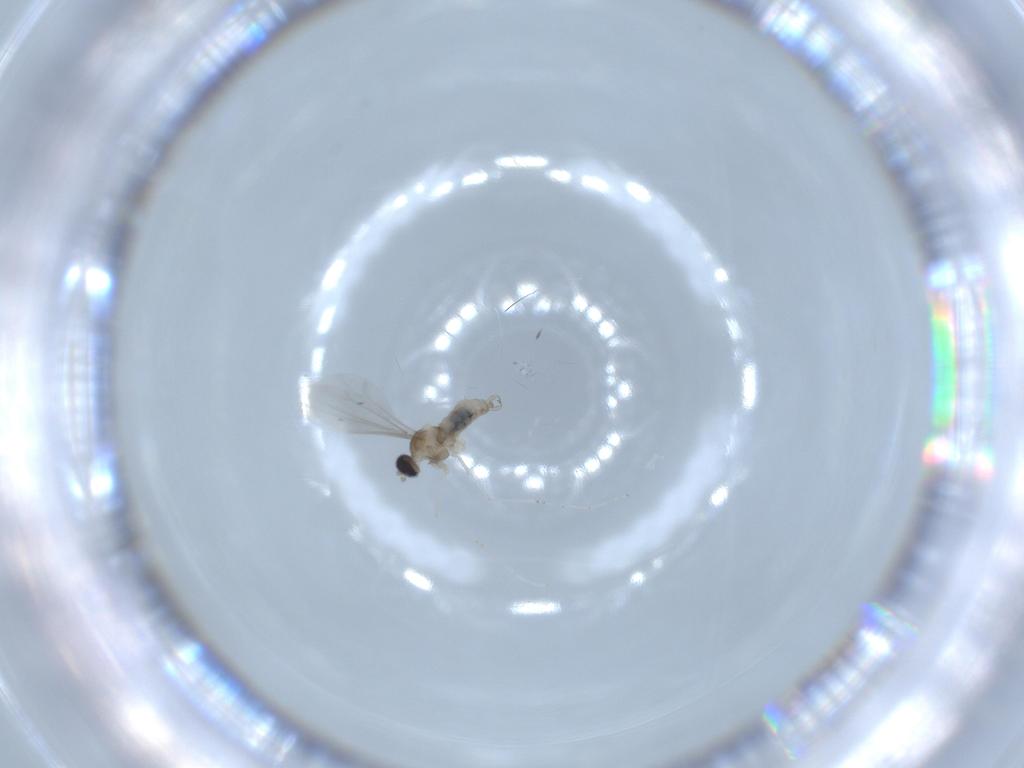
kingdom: Animalia
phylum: Arthropoda
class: Insecta
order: Diptera
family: Cecidomyiidae
